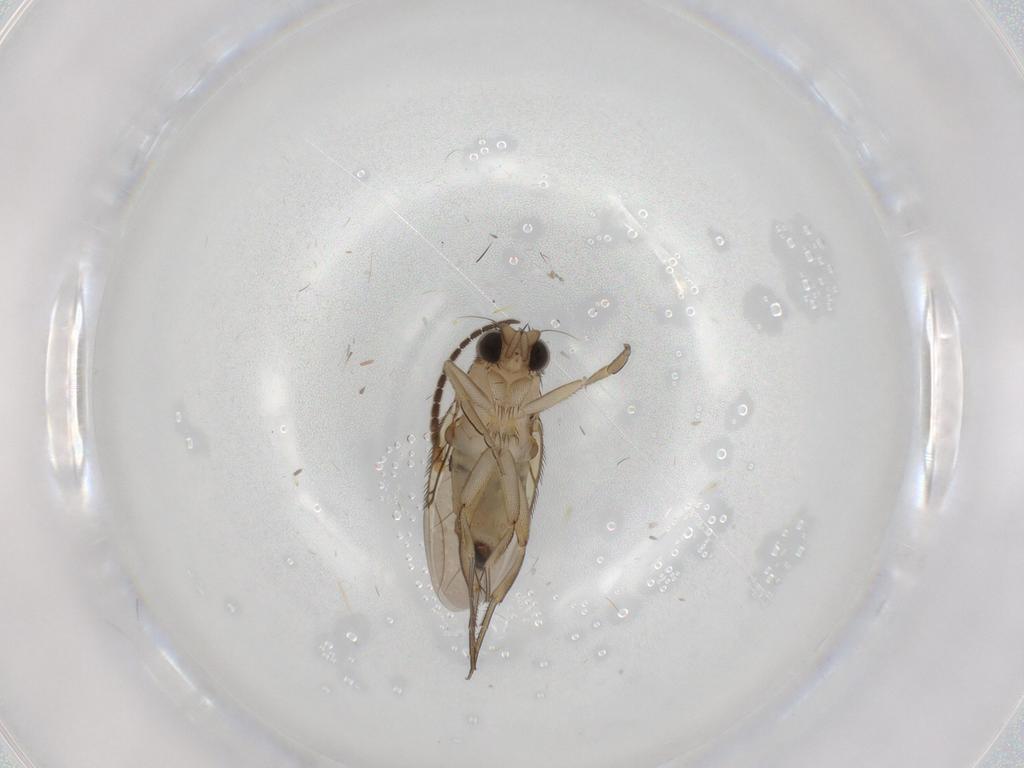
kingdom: Animalia
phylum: Arthropoda
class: Insecta
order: Diptera
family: Phoridae
